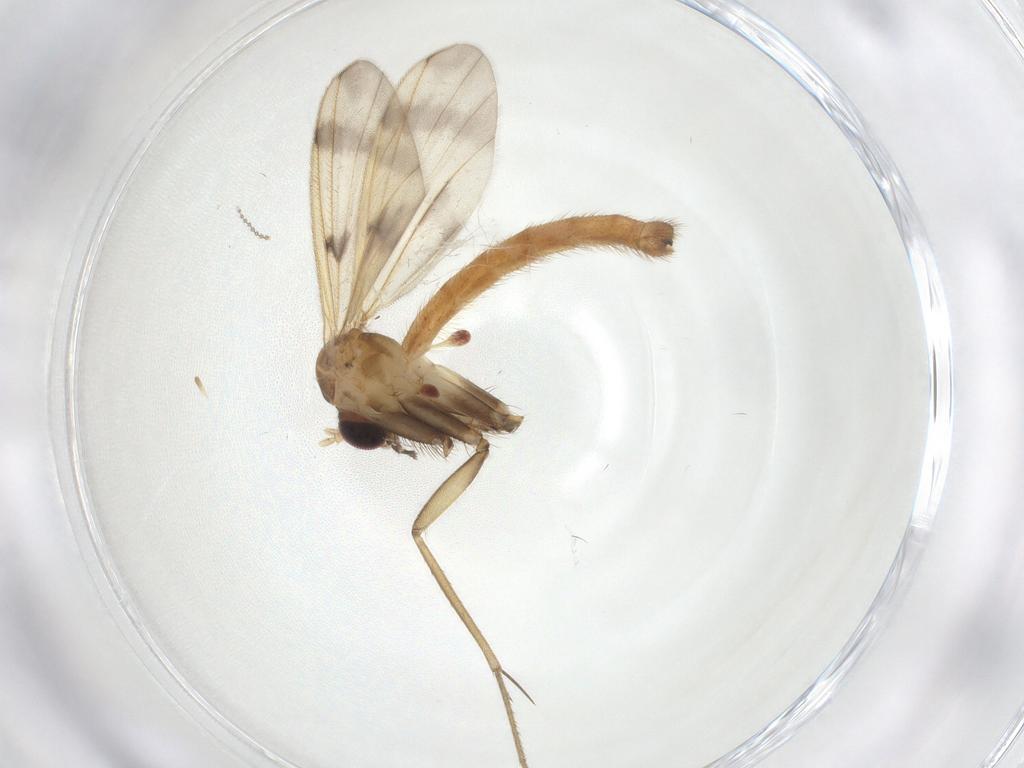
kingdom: Animalia
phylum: Arthropoda
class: Insecta
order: Diptera
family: Mycetophilidae
